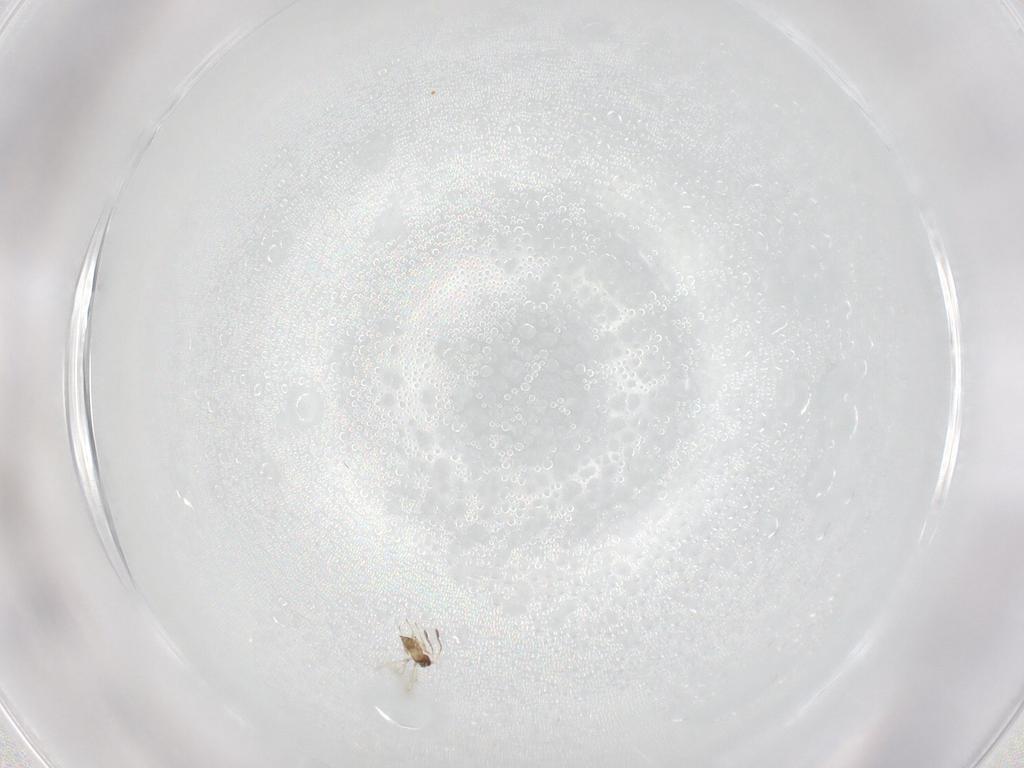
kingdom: Animalia
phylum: Arthropoda
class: Insecta
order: Hymenoptera
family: Mymaridae
